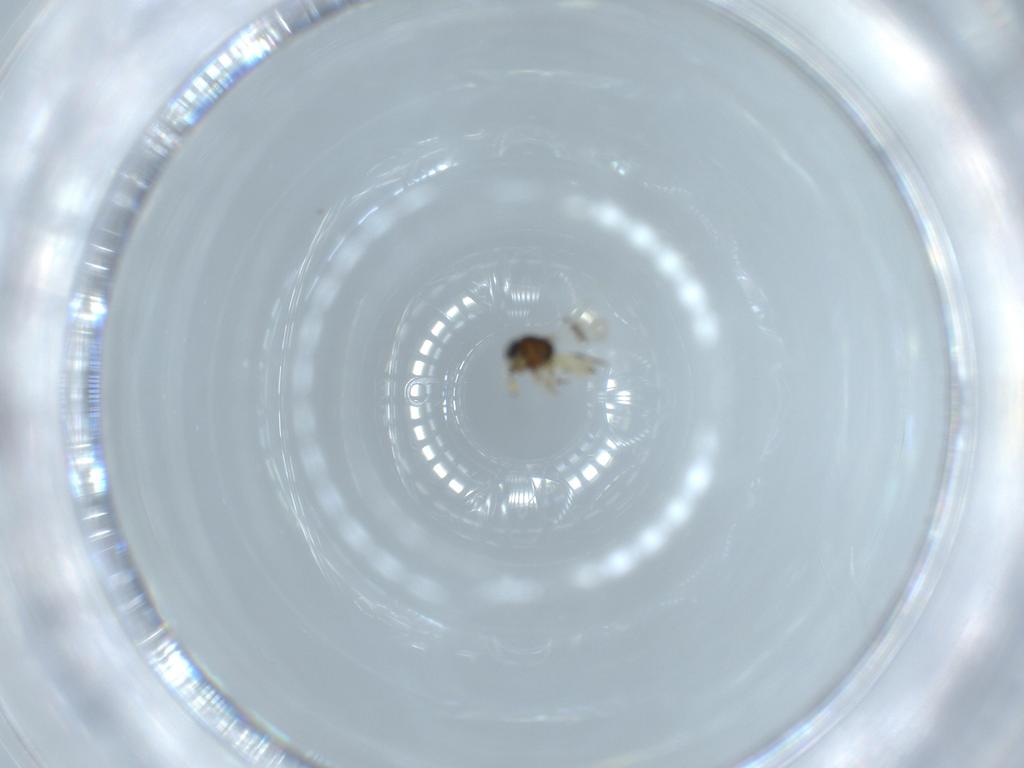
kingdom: Animalia
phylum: Arthropoda
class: Insecta
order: Hymenoptera
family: Scelionidae
